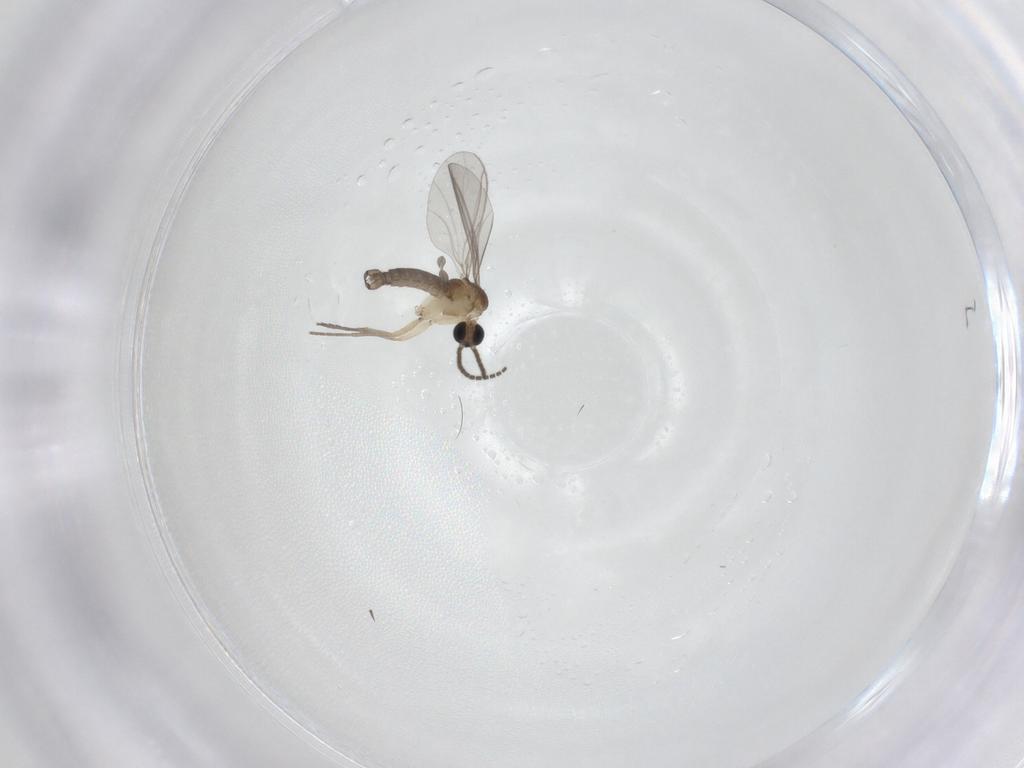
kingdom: Animalia
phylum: Arthropoda
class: Insecta
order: Diptera
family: Sciaridae
